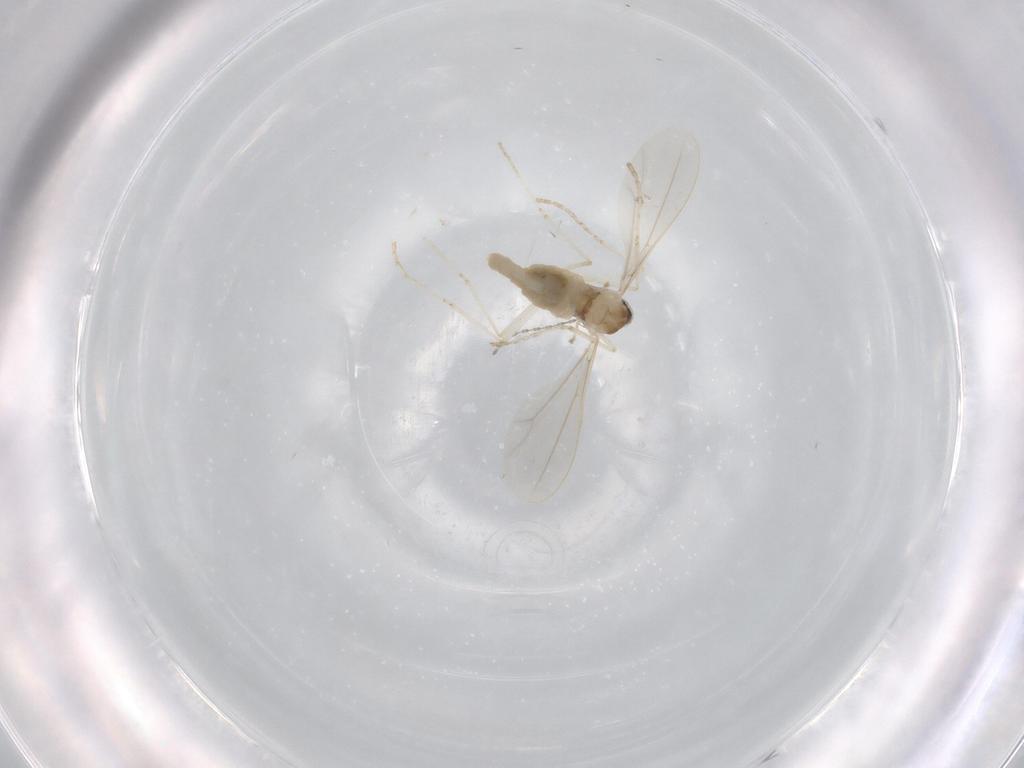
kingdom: Animalia
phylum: Arthropoda
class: Insecta
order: Diptera
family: Cecidomyiidae
